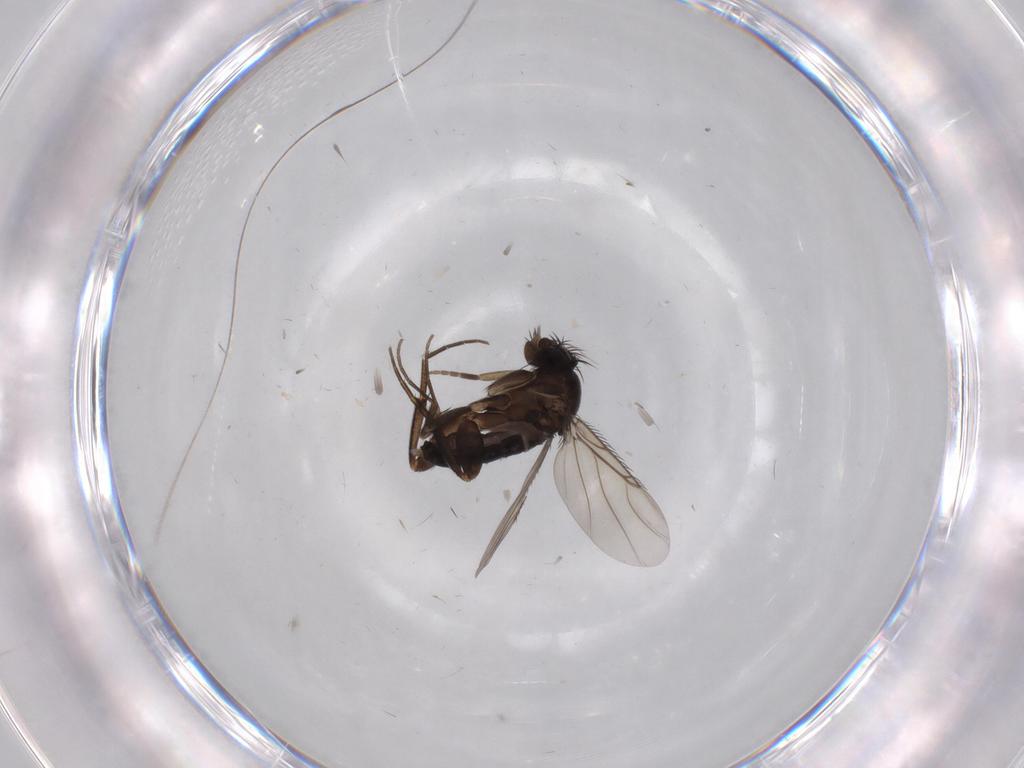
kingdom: Animalia
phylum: Arthropoda
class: Insecta
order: Diptera
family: Phoridae
